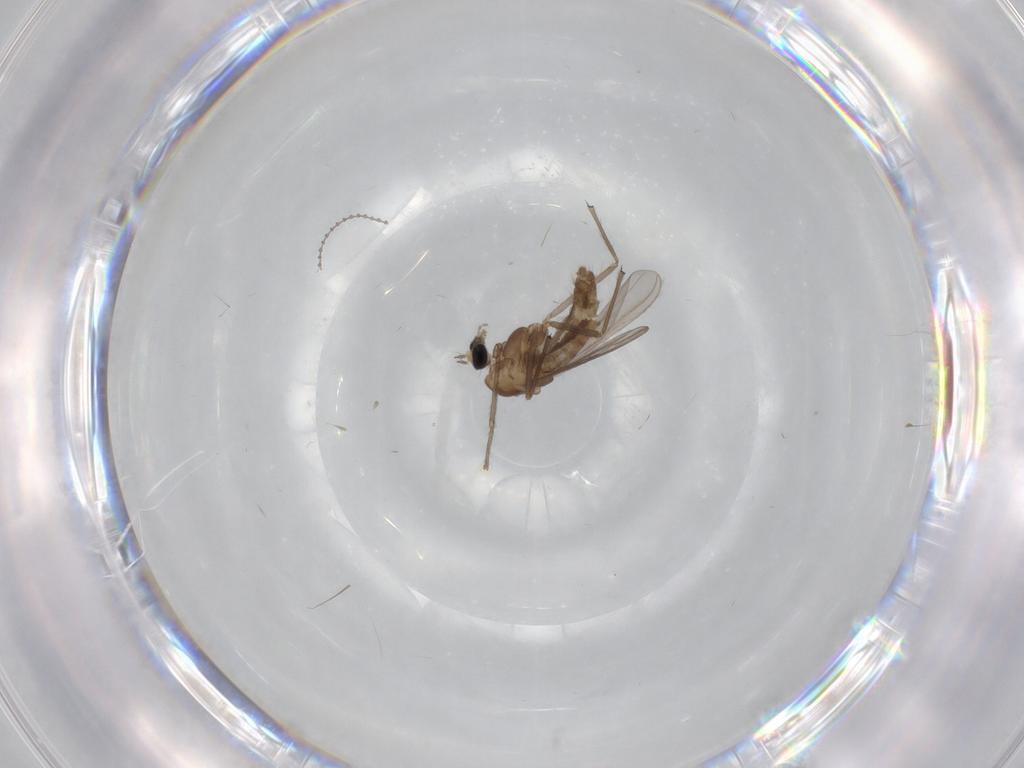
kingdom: Animalia
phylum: Arthropoda
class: Insecta
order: Diptera
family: Chironomidae
